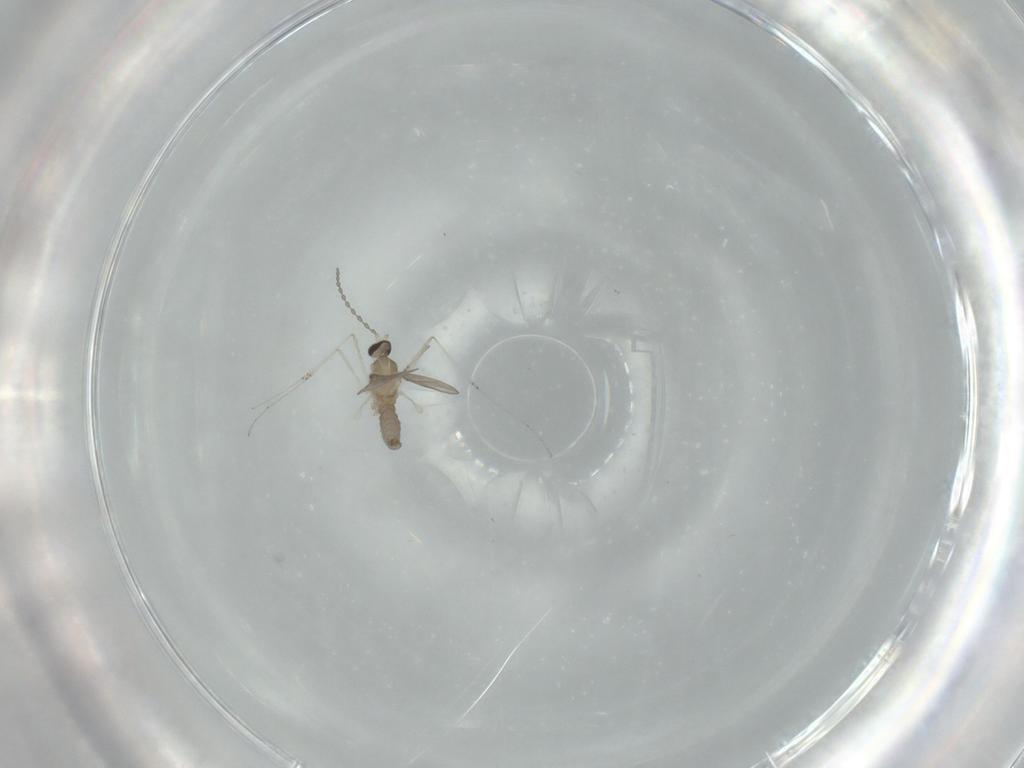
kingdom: Animalia
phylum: Arthropoda
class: Insecta
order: Diptera
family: Cecidomyiidae
